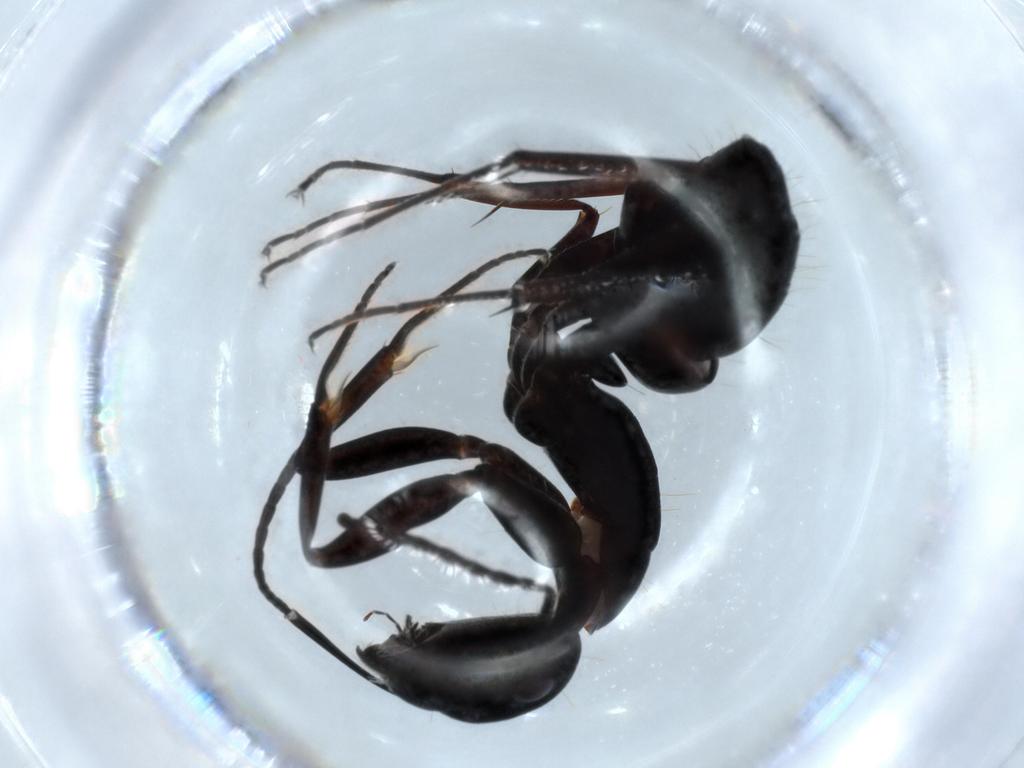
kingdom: Animalia
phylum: Arthropoda
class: Insecta
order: Hymenoptera
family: Formicidae
